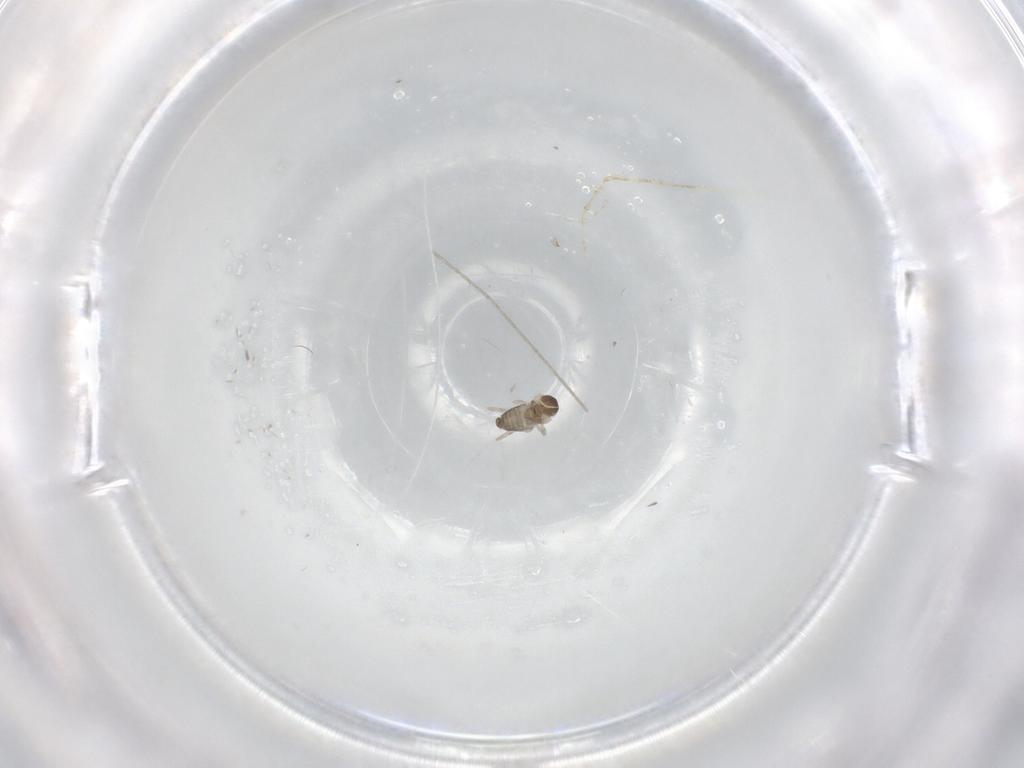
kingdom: Animalia
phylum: Arthropoda
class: Insecta
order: Diptera
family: Cecidomyiidae
